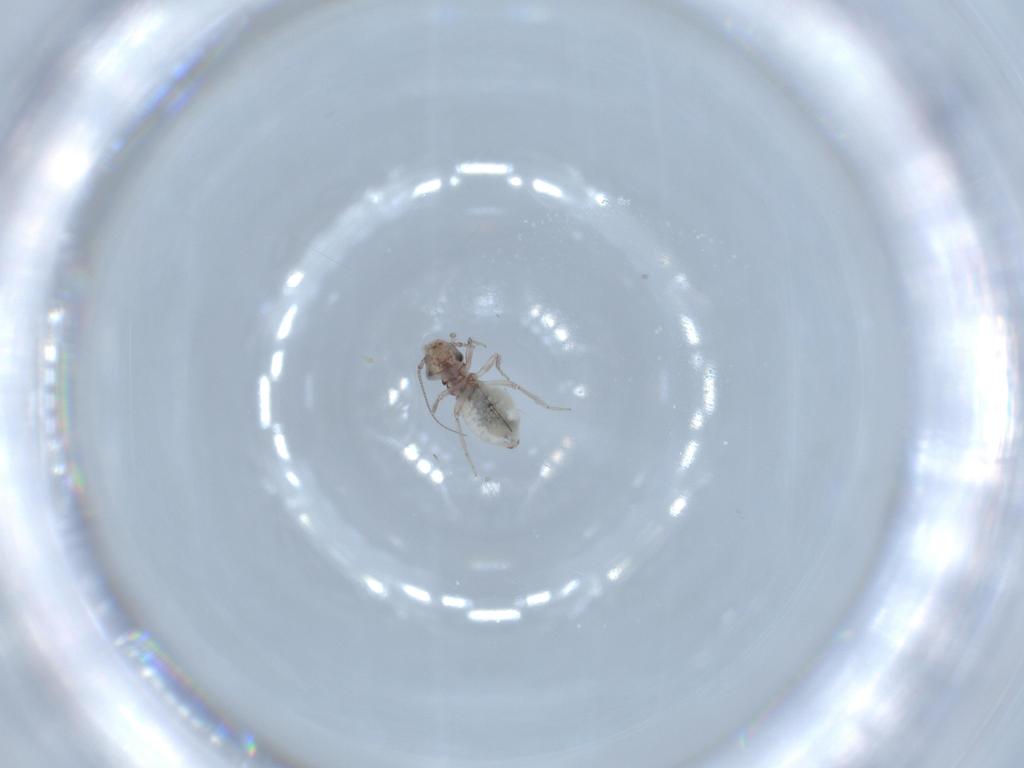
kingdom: Animalia
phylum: Arthropoda
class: Insecta
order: Psocodea
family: Lepidopsocidae
